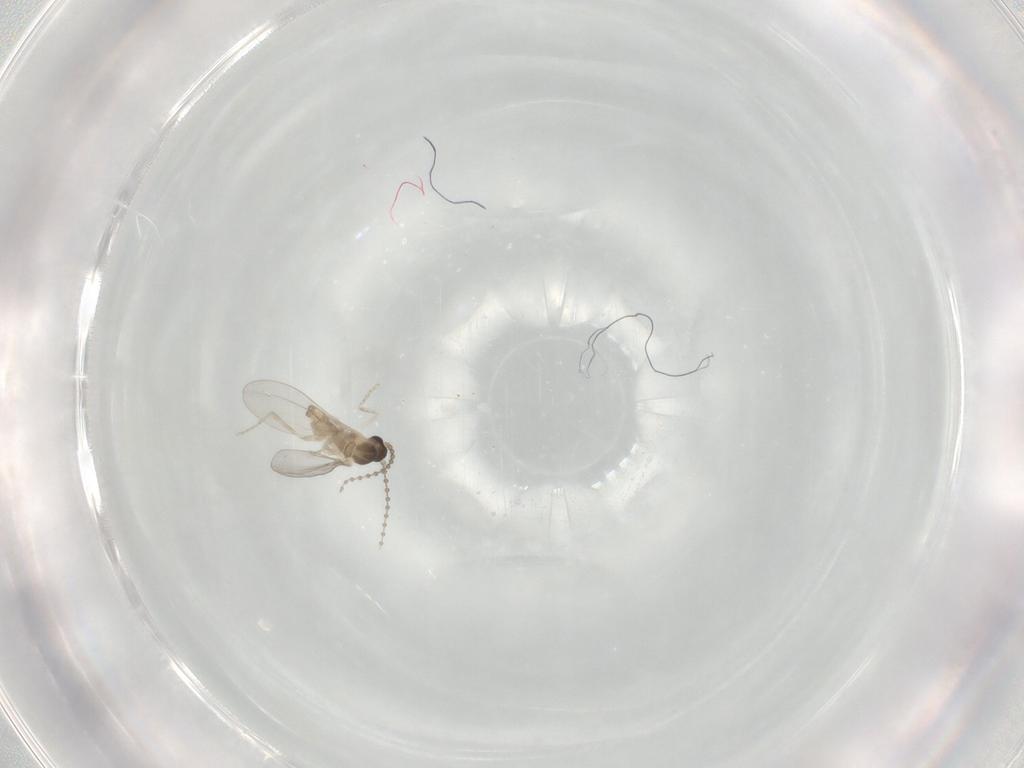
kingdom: Animalia
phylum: Arthropoda
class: Insecta
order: Diptera
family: Cecidomyiidae
